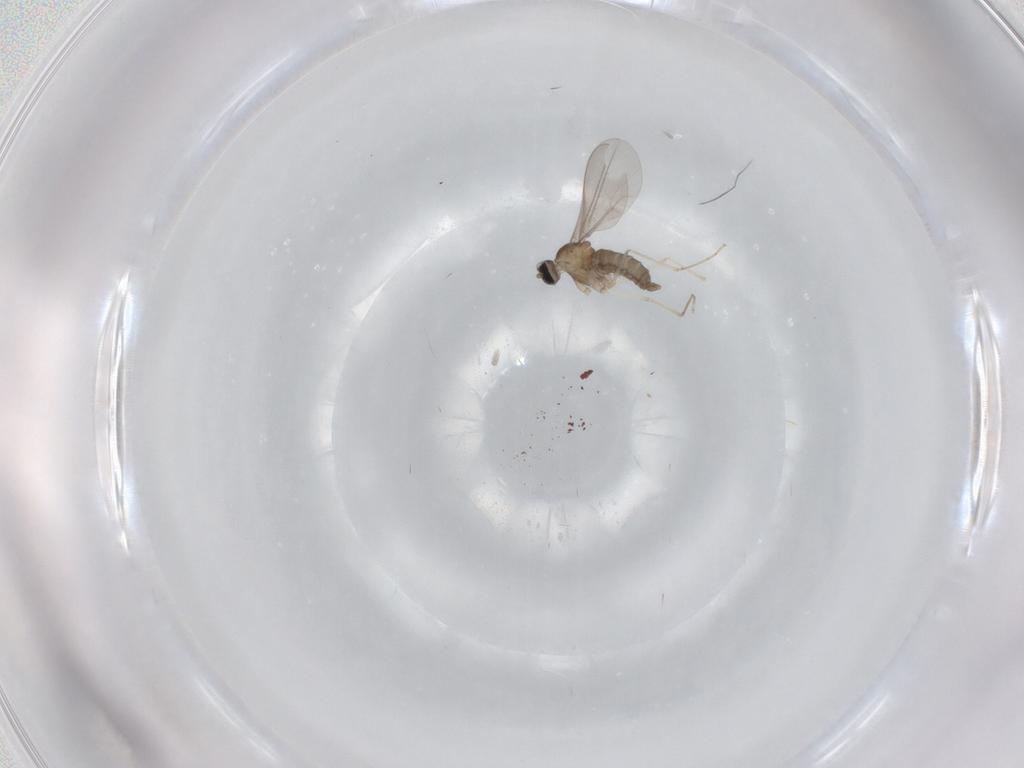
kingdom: Animalia
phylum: Arthropoda
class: Insecta
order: Diptera
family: Cecidomyiidae
